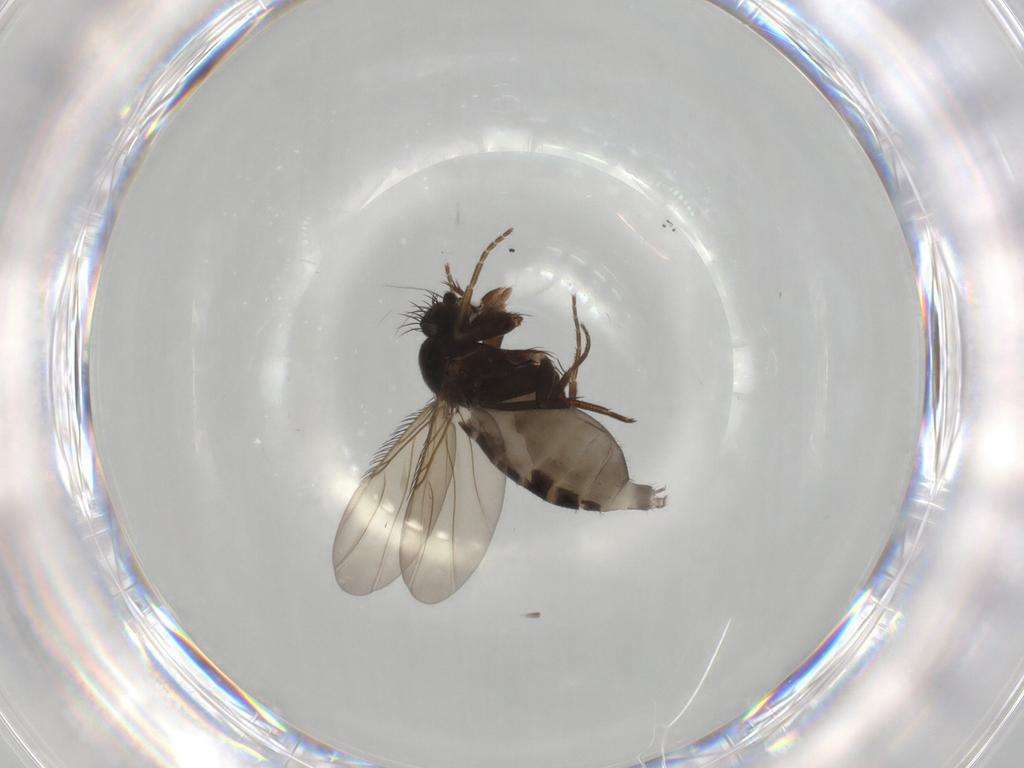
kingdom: Animalia
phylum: Arthropoda
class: Insecta
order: Diptera
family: Phoridae
